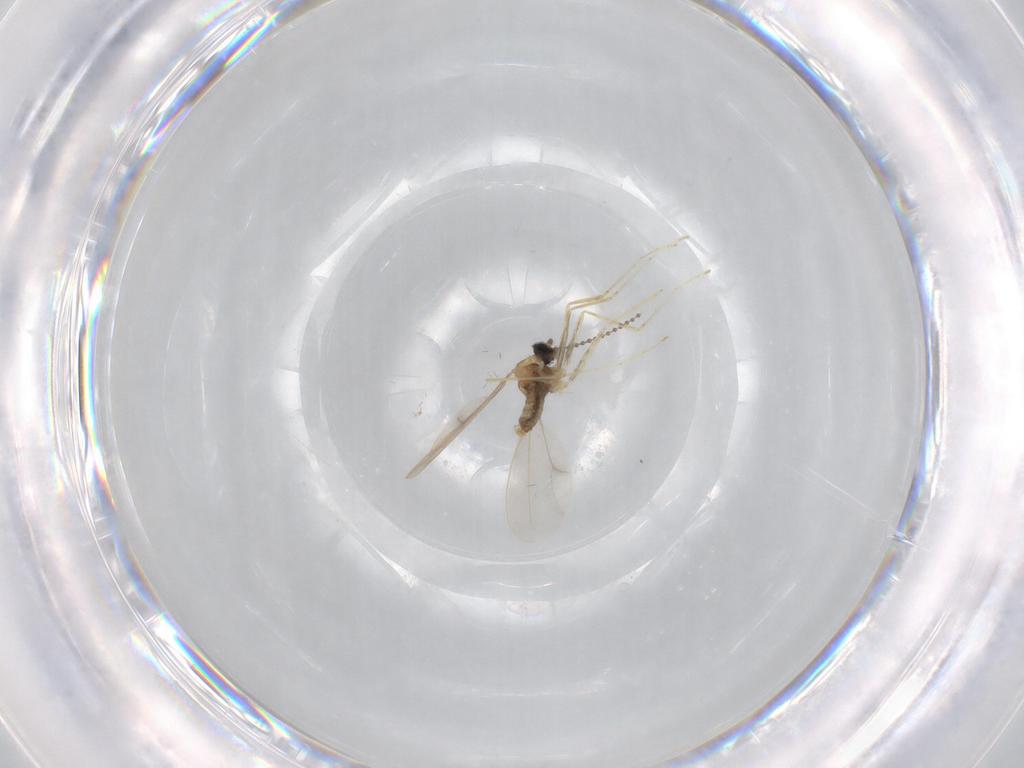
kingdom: Animalia
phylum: Arthropoda
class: Insecta
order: Diptera
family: Cecidomyiidae
